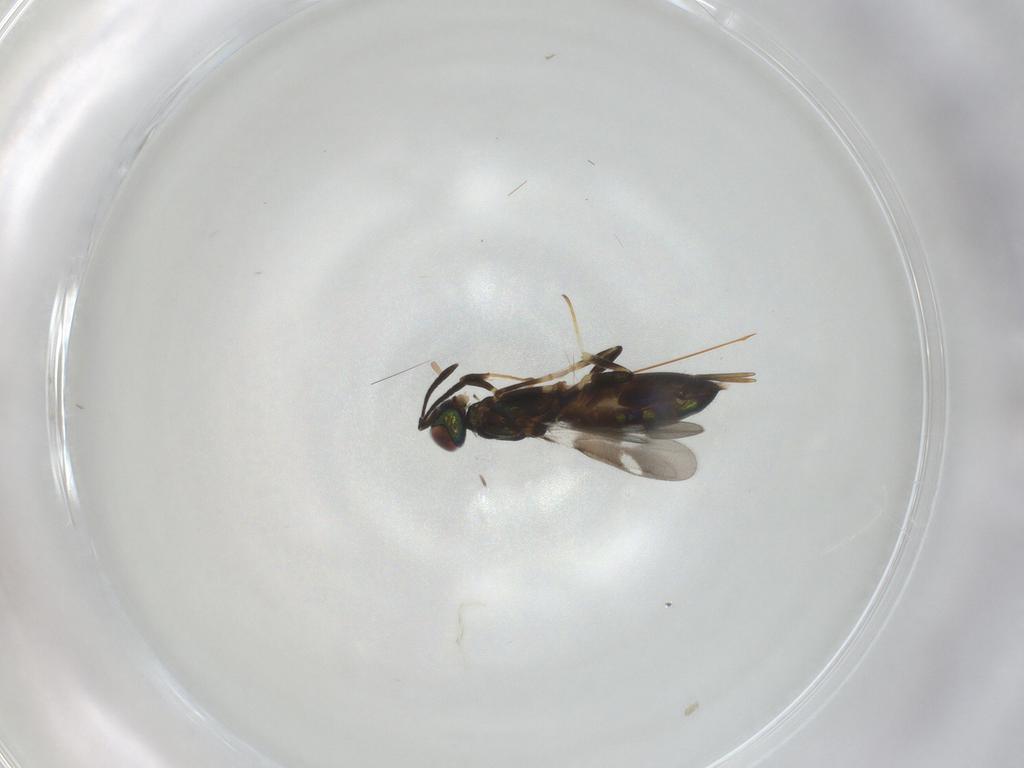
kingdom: Animalia
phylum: Arthropoda
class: Insecta
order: Hymenoptera
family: Eupelmidae
